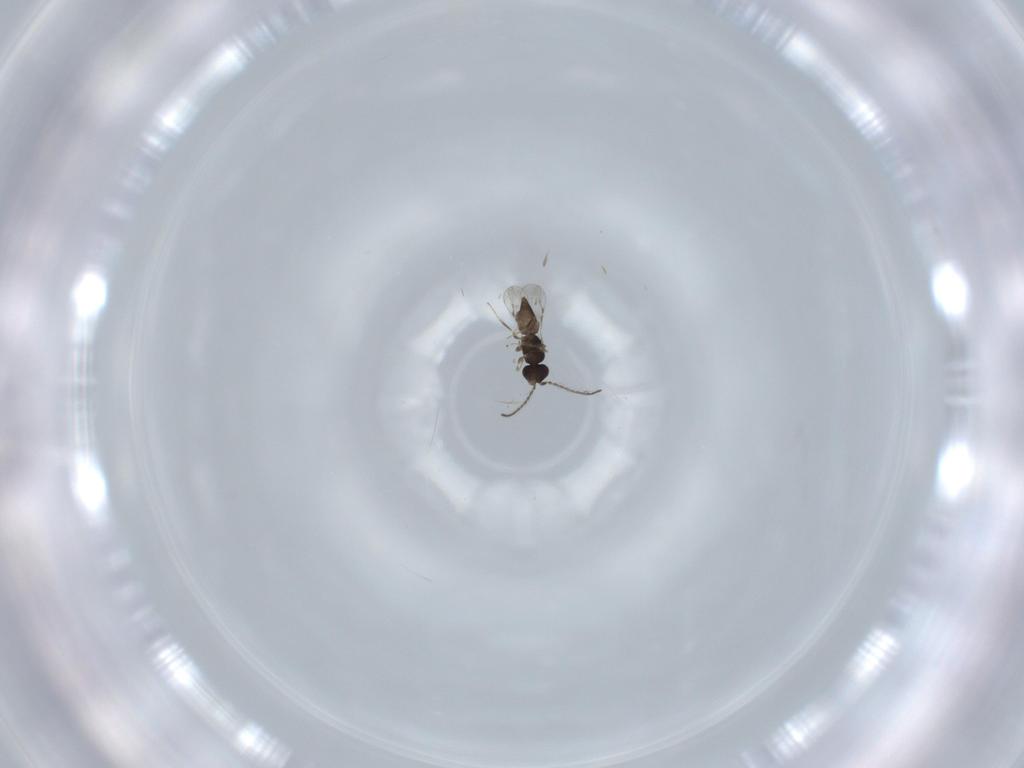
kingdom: Animalia
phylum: Arthropoda
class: Insecta
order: Hymenoptera
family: Ceraphronidae
